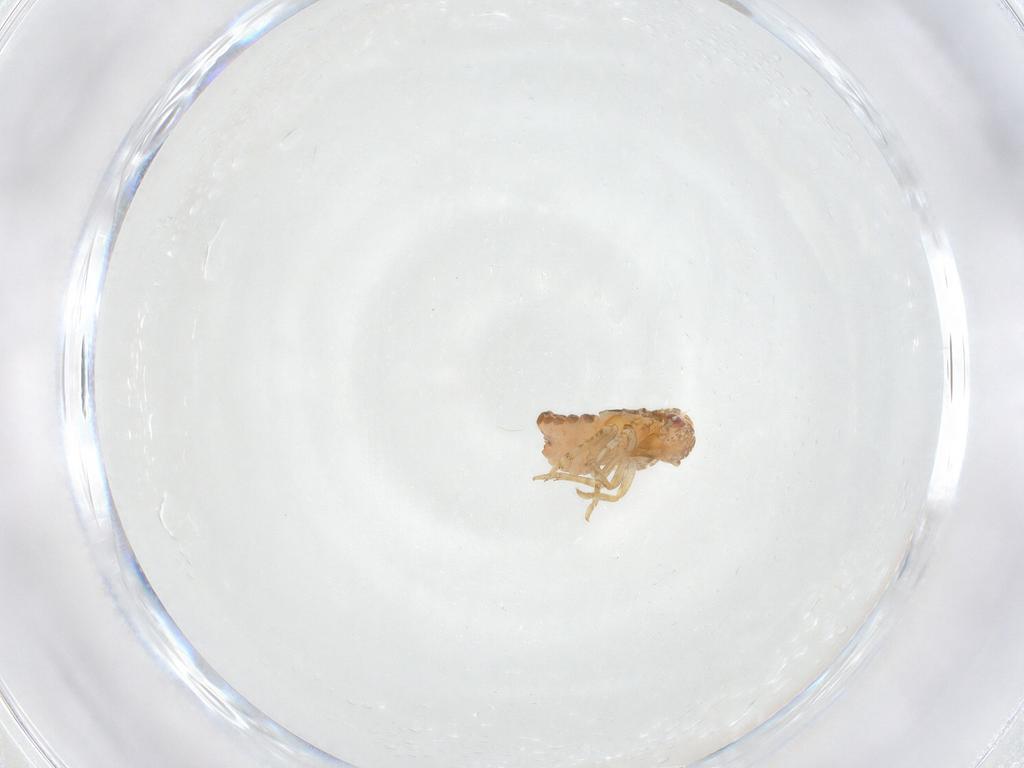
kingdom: Animalia
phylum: Arthropoda
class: Insecta
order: Hemiptera
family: Flatidae
